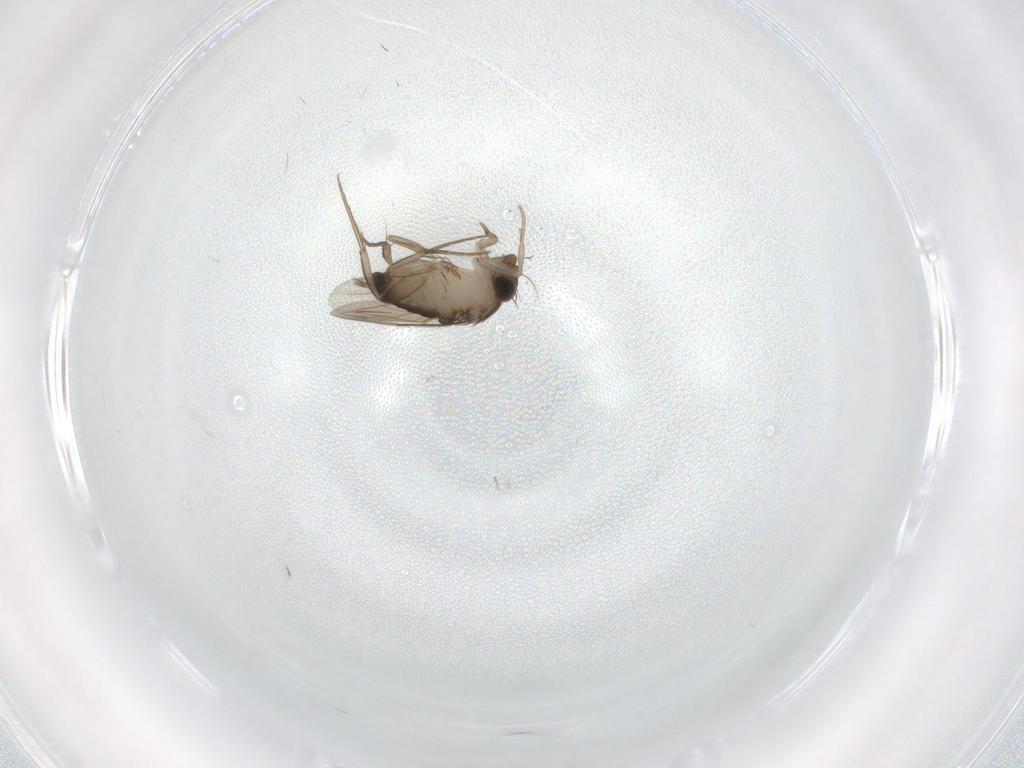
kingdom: Animalia
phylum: Arthropoda
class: Insecta
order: Diptera
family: Phoridae
